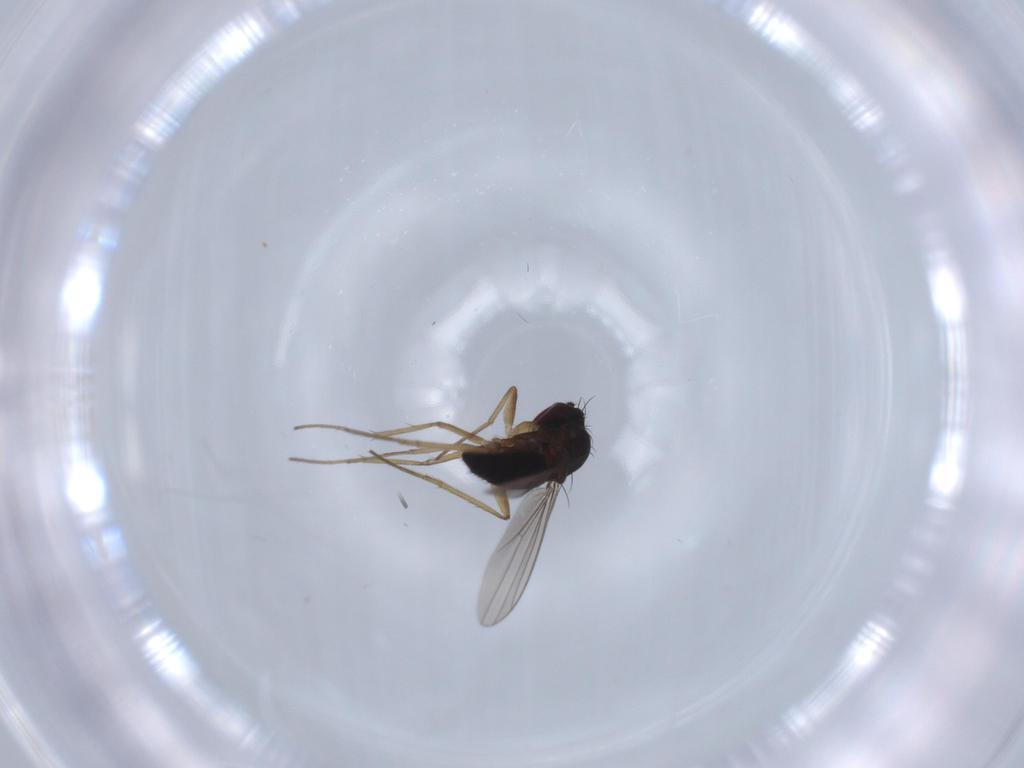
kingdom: Animalia
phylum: Arthropoda
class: Insecta
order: Diptera
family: Dolichopodidae
